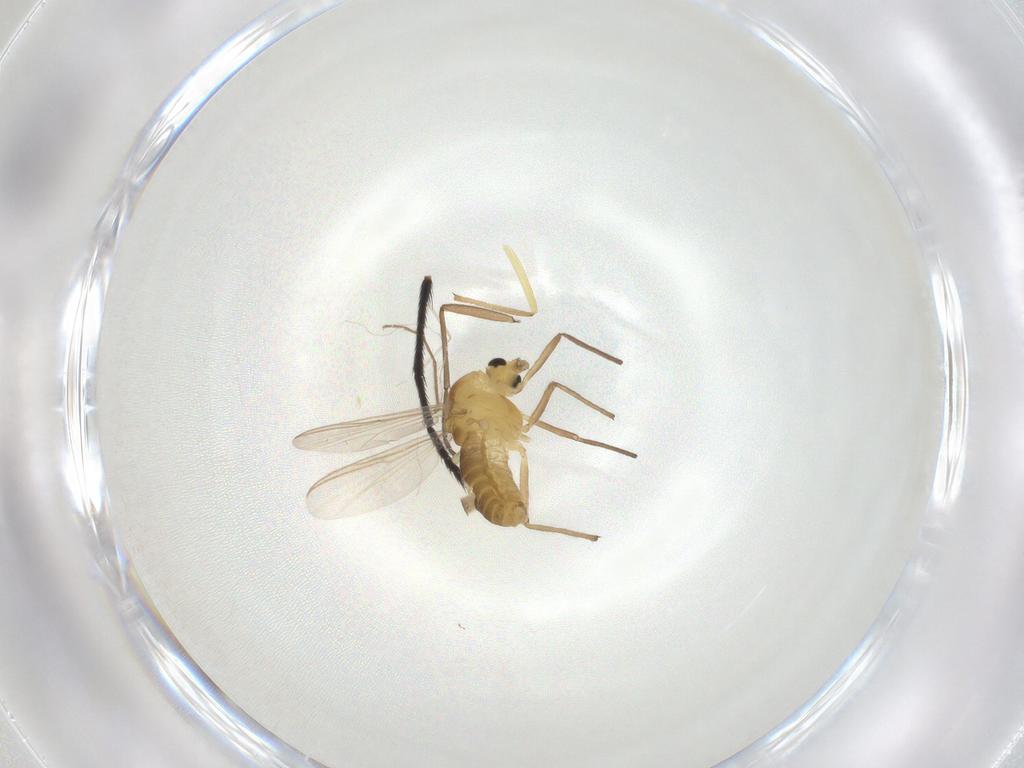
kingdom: Animalia
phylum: Arthropoda
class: Insecta
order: Diptera
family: Tachinidae
